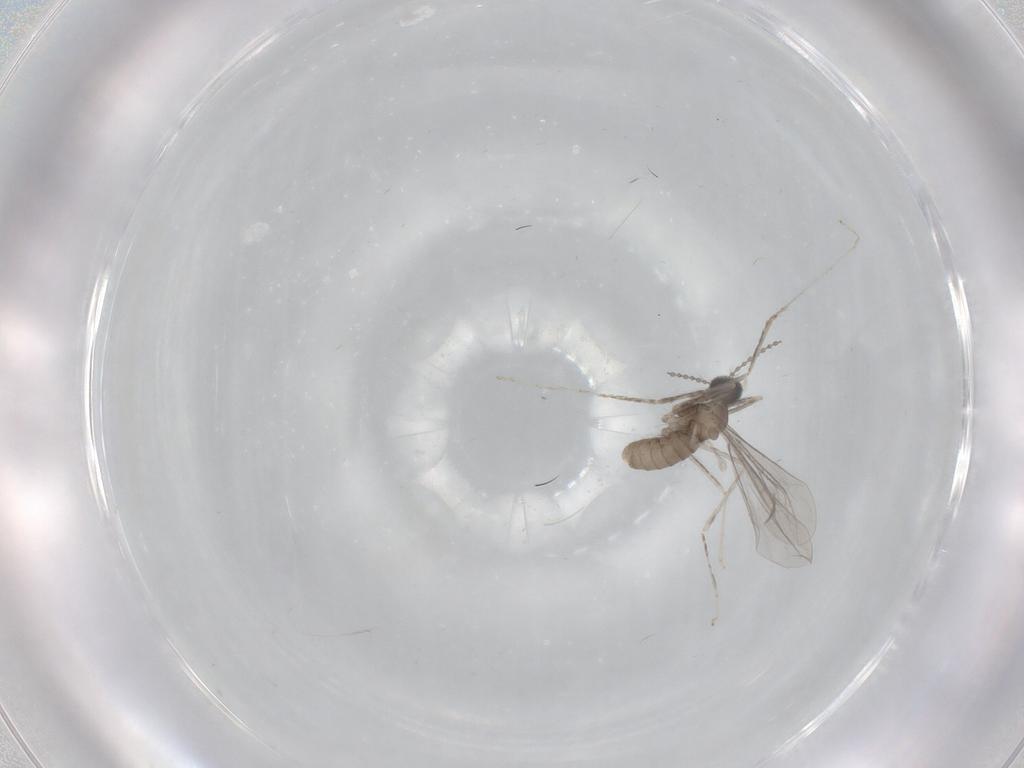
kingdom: Animalia
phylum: Arthropoda
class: Insecta
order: Diptera
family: Cecidomyiidae
